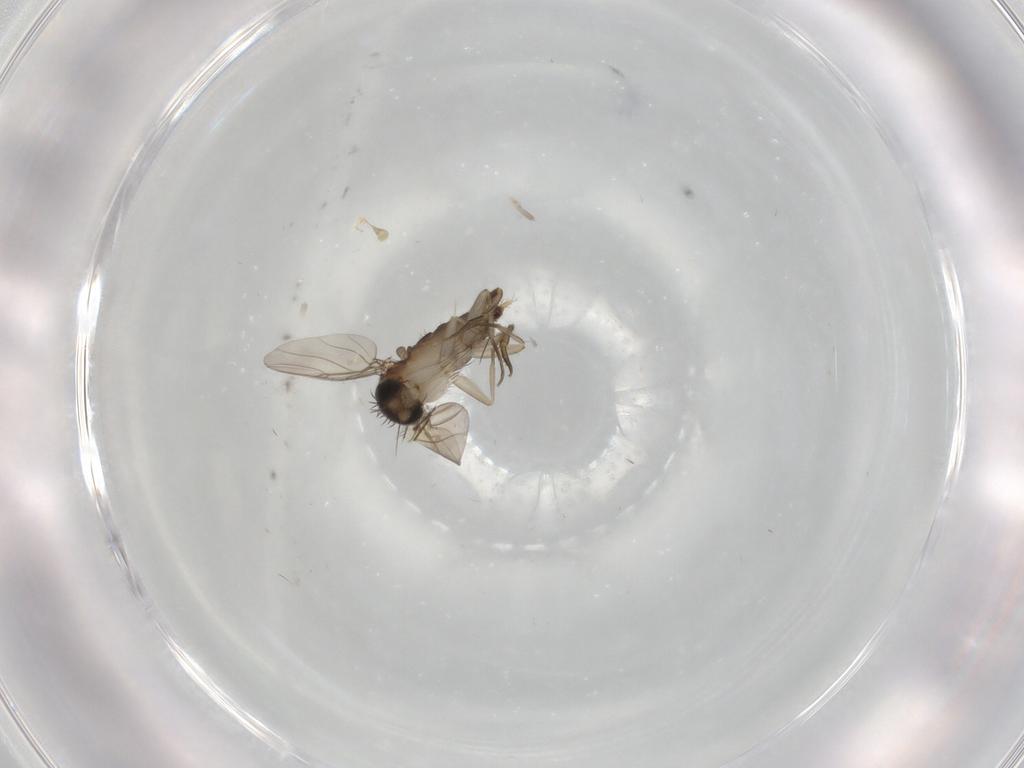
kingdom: Animalia
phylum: Arthropoda
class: Insecta
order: Diptera
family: Phoridae
